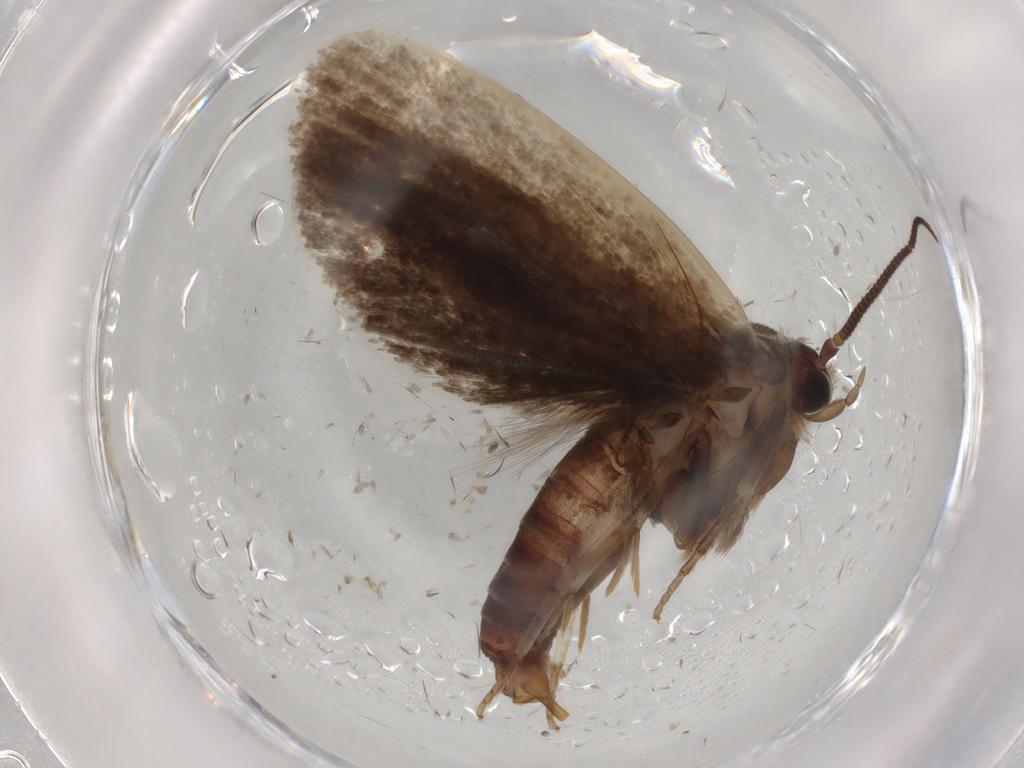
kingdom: Animalia
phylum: Arthropoda
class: Insecta
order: Lepidoptera
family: Tineidae
